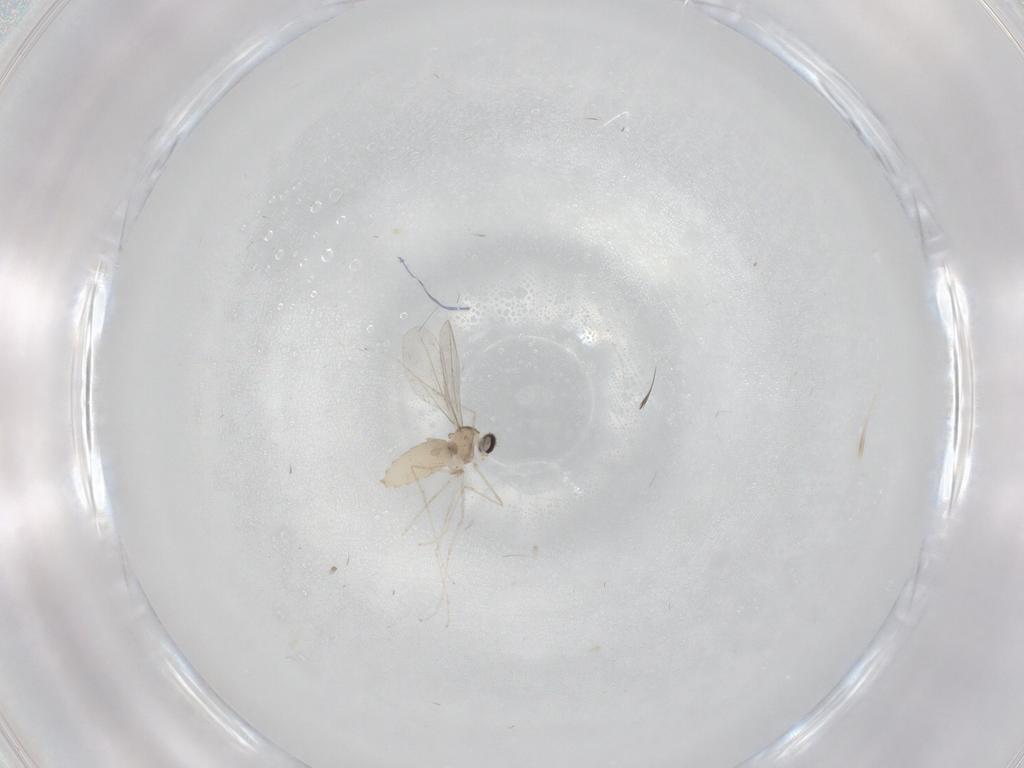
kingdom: Animalia
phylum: Arthropoda
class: Insecta
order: Diptera
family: Cecidomyiidae
